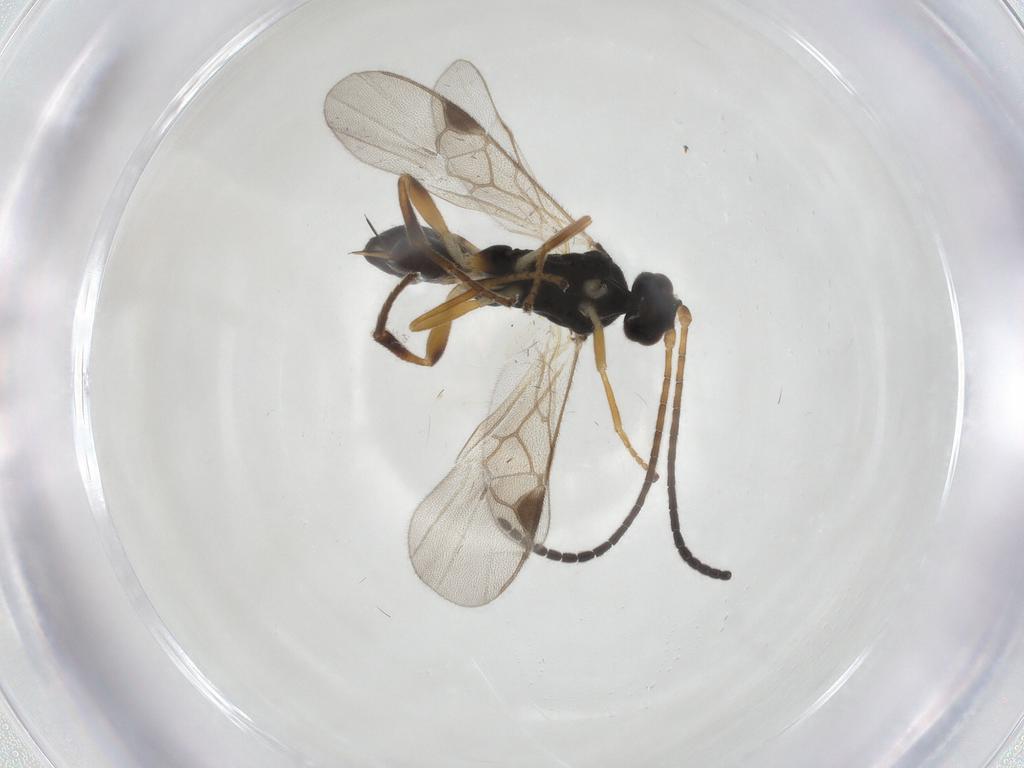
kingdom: Animalia
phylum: Arthropoda
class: Insecta
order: Hymenoptera
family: Braconidae
